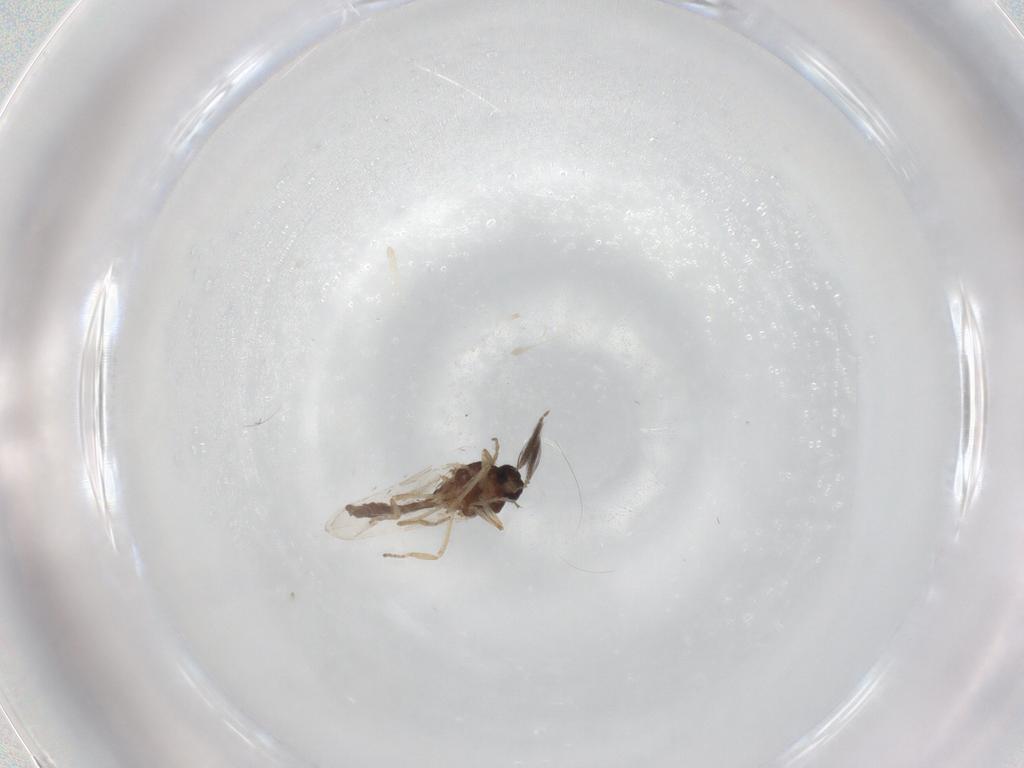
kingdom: Animalia
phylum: Arthropoda
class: Insecta
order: Diptera
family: Ceratopogonidae
